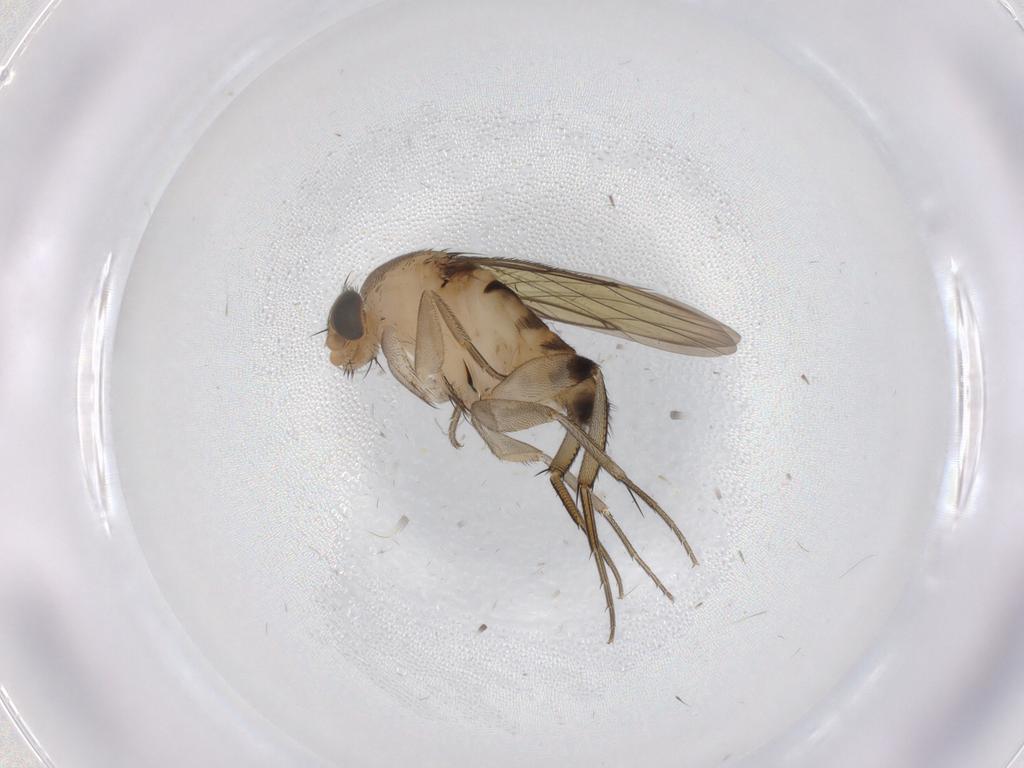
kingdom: Animalia
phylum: Arthropoda
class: Insecta
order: Diptera
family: Phoridae
